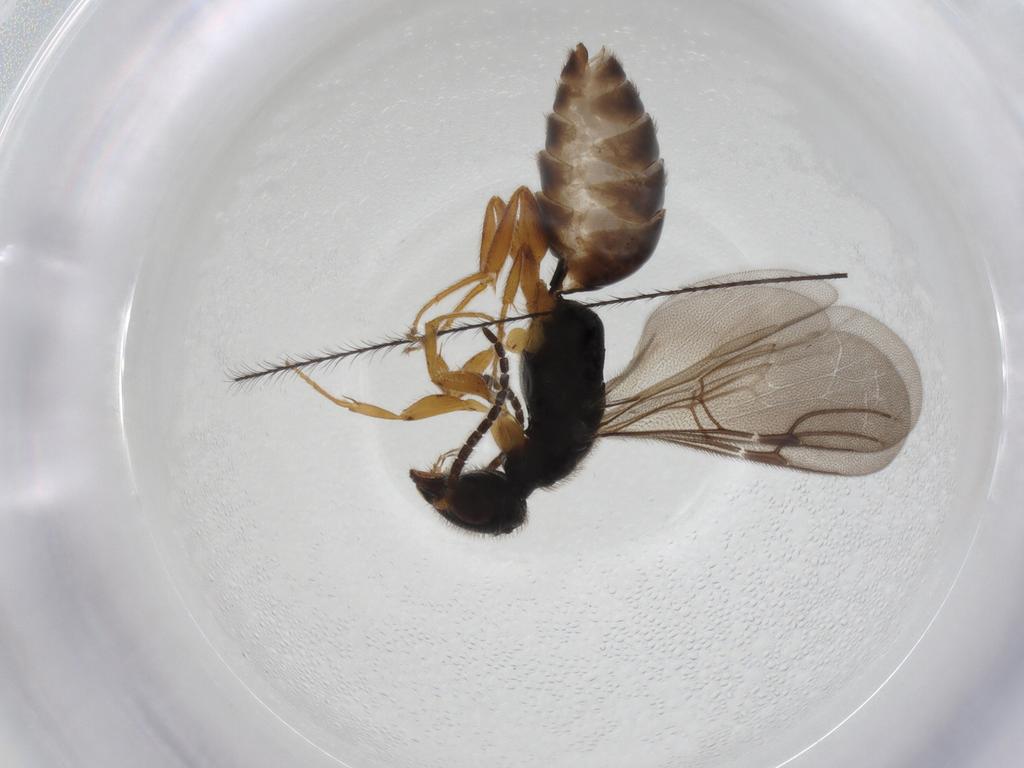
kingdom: Animalia
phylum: Arthropoda
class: Insecta
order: Hymenoptera
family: Bethylidae
